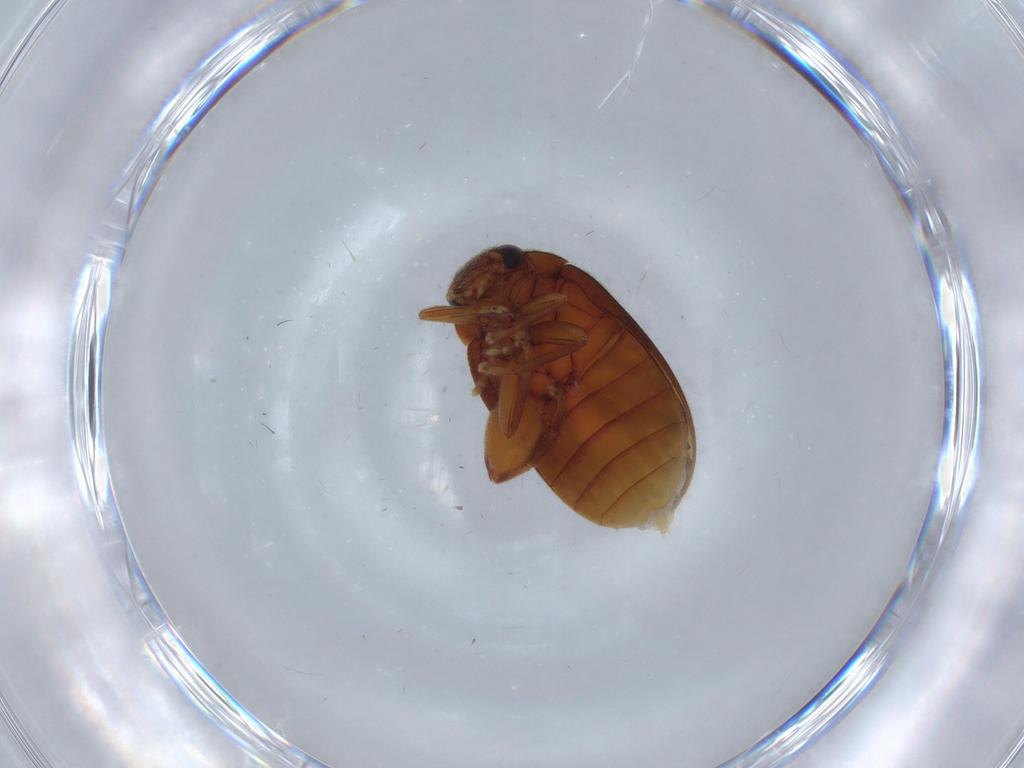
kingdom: Animalia
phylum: Arthropoda
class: Insecta
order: Coleoptera
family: Scirtidae
